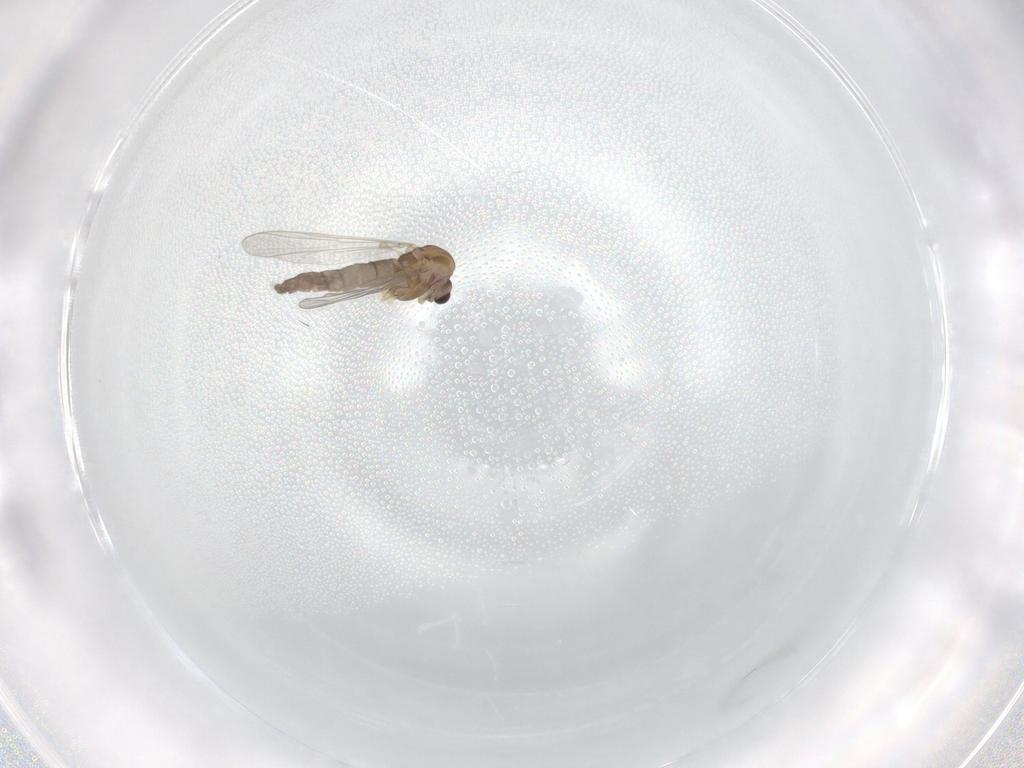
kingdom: Animalia
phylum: Arthropoda
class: Insecta
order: Diptera
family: Chironomidae
